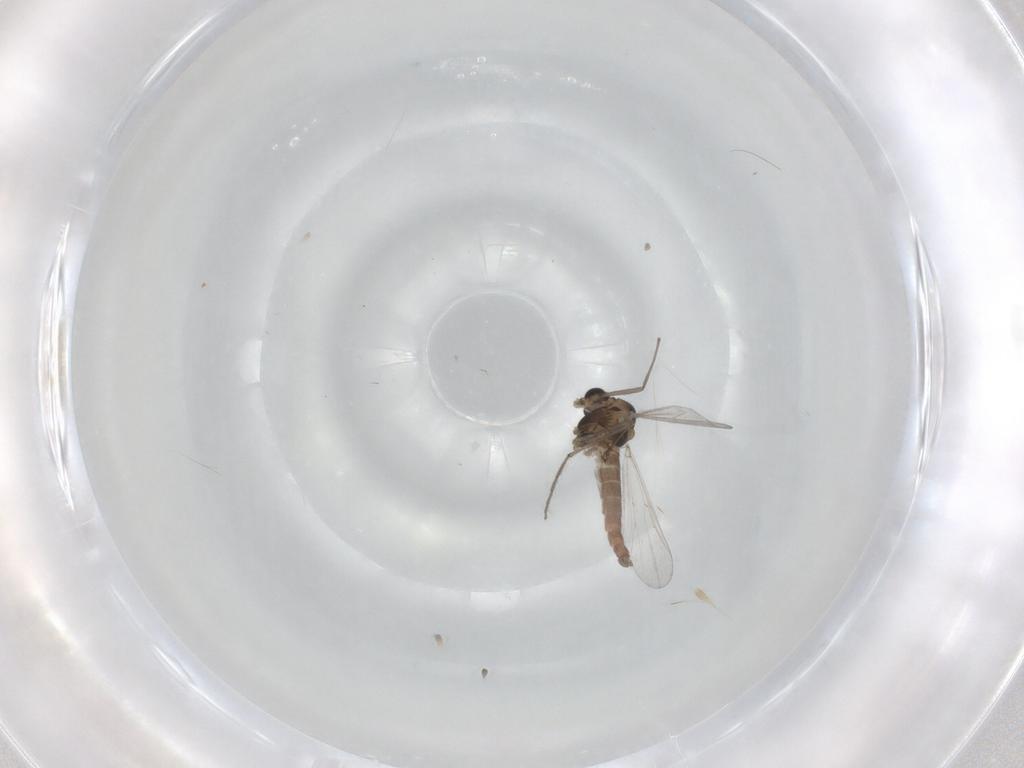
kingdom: Animalia
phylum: Arthropoda
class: Insecta
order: Diptera
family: Chironomidae
